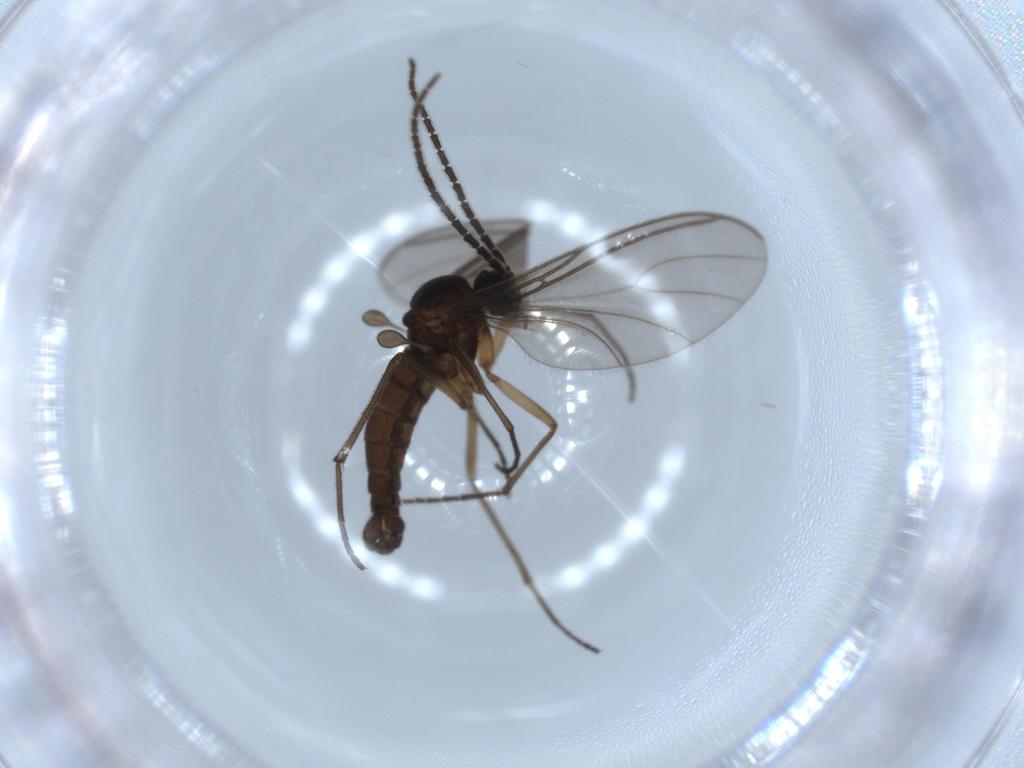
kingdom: Animalia
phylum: Arthropoda
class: Insecta
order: Diptera
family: Sciaridae
